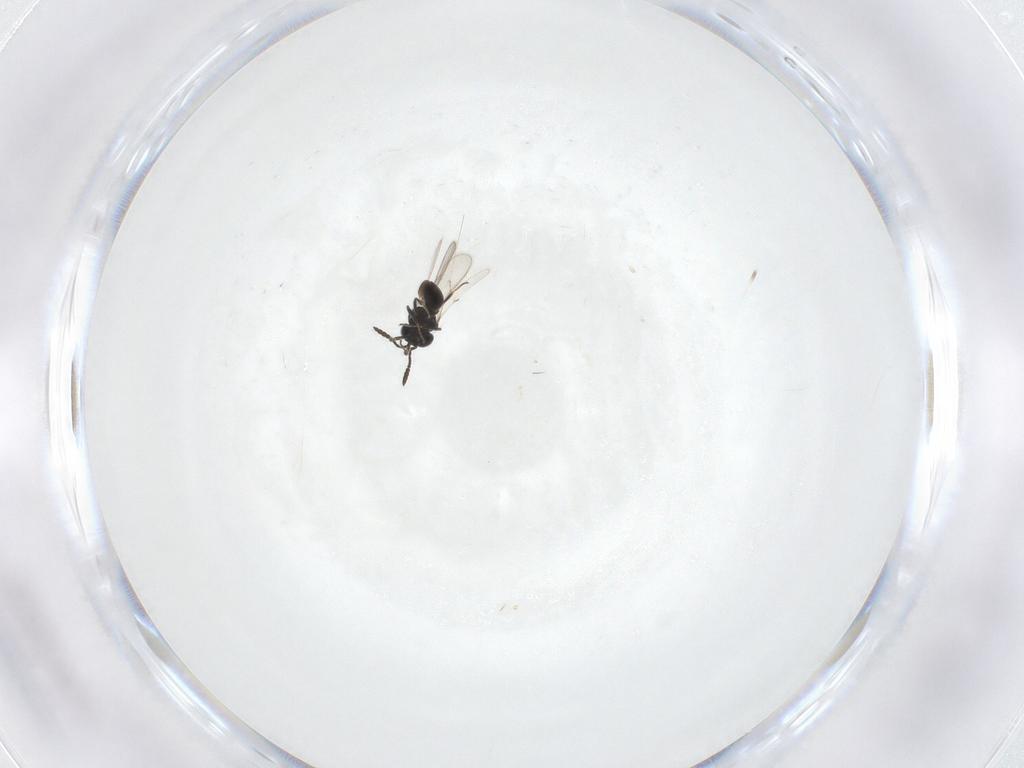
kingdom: Animalia
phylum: Arthropoda
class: Insecta
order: Hymenoptera
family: Scelionidae
